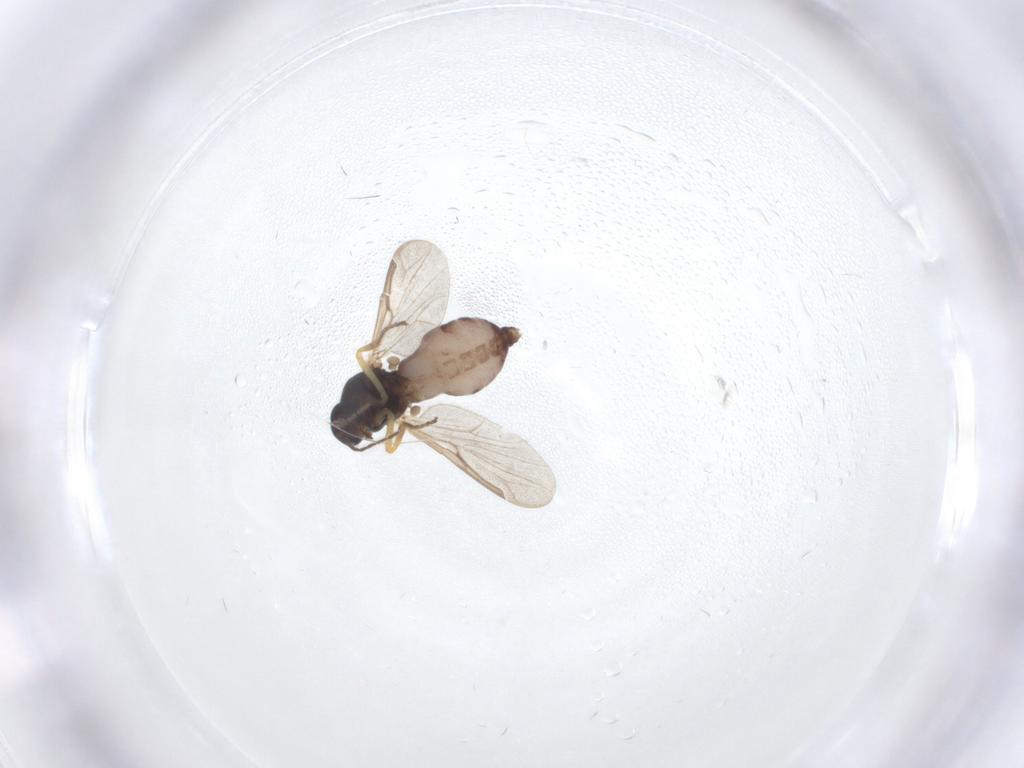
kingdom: Animalia
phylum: Arthropoda
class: Insecta
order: Diptera
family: Ceratopogonidae
